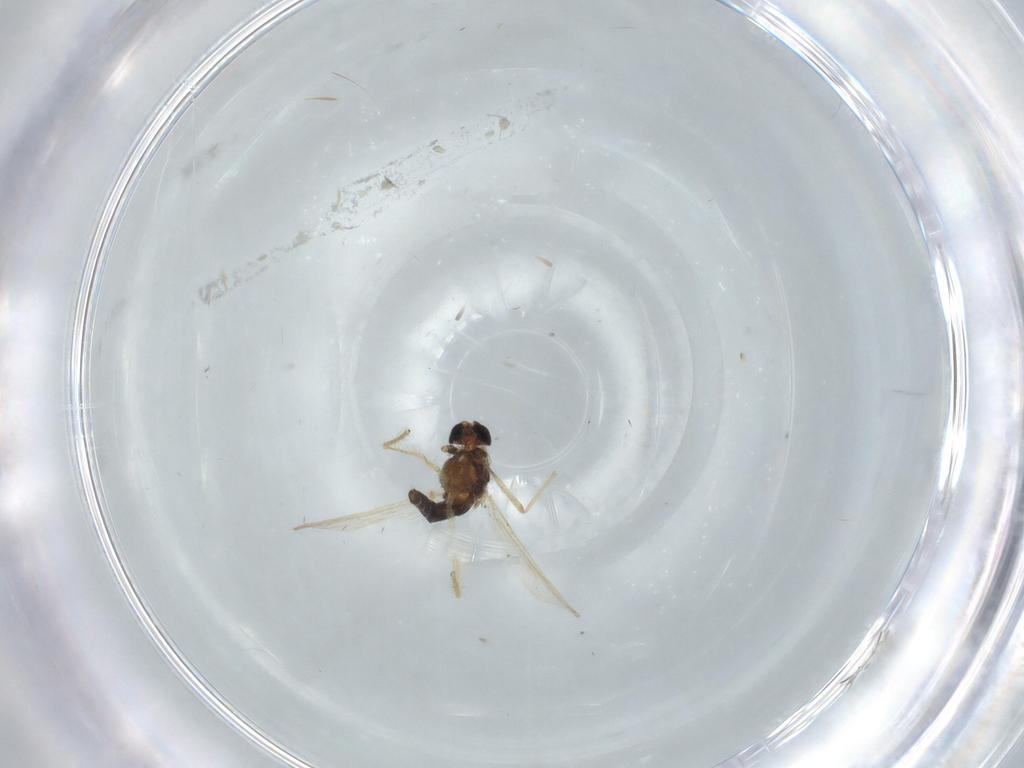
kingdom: Animalia
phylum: Arthropoda
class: Insecta
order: Diptera
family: Chironomidae
